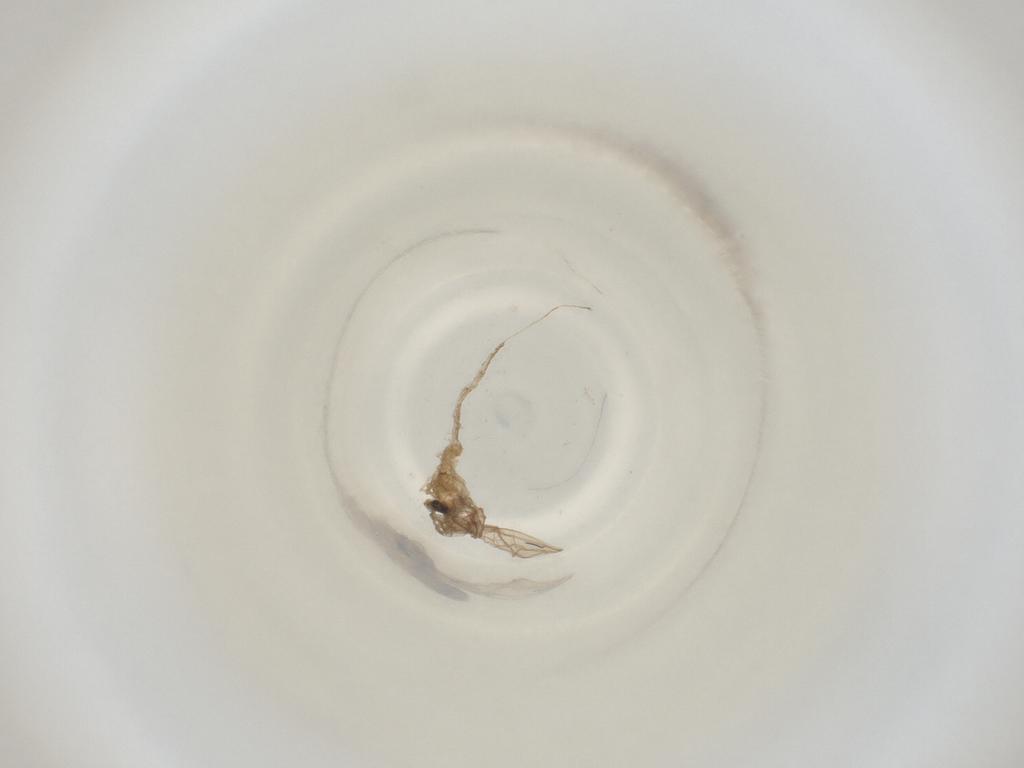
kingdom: Animalia
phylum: Arthropoda
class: Insecta
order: Diptera
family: Cecidomyiidae
